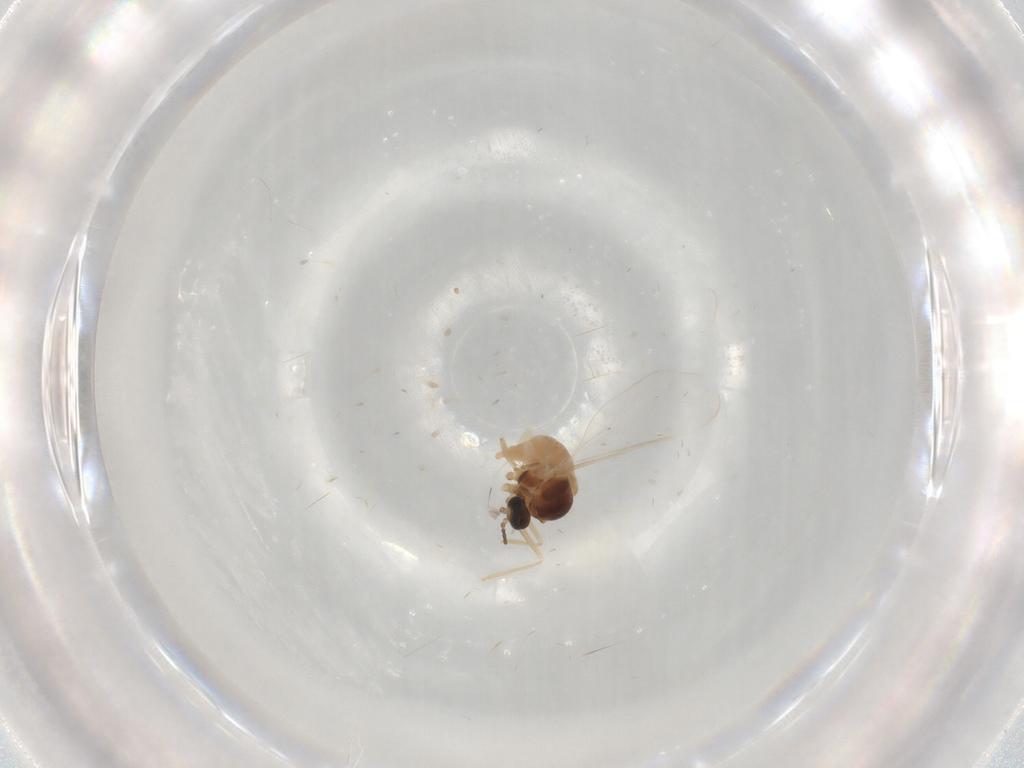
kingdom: Animalia
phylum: Arthropoda
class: Insecta
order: Diptera
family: Cecidomyiidae
